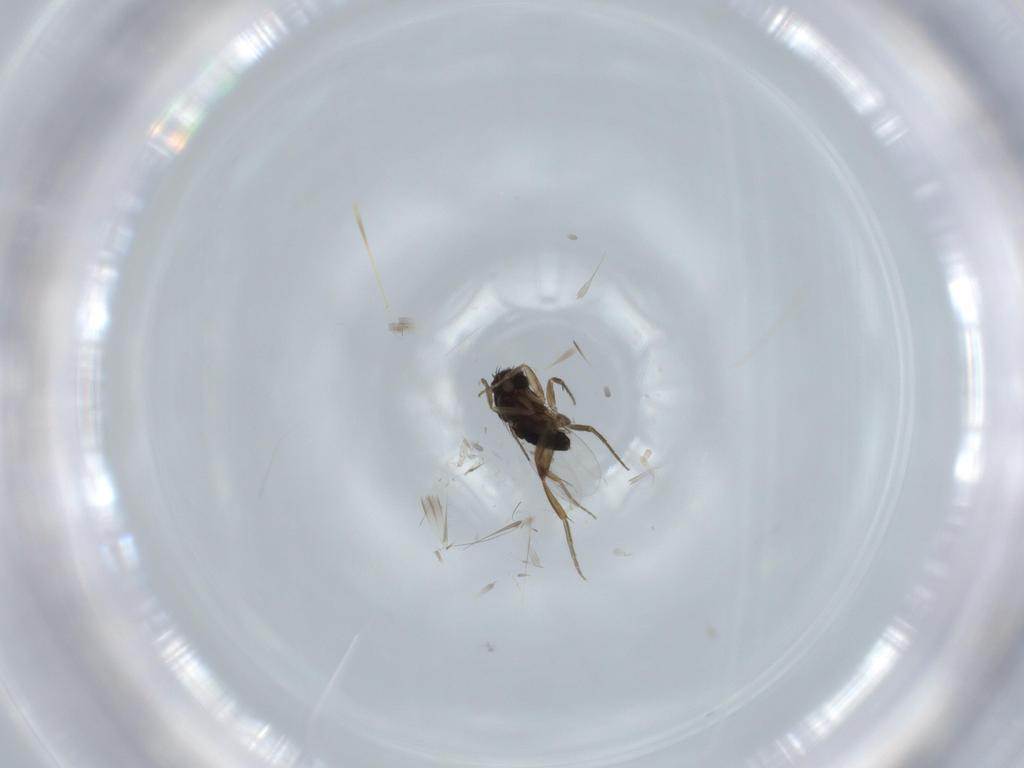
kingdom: Animalia
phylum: Arthropoda
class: Insecta
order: Diptera
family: Phoridae
